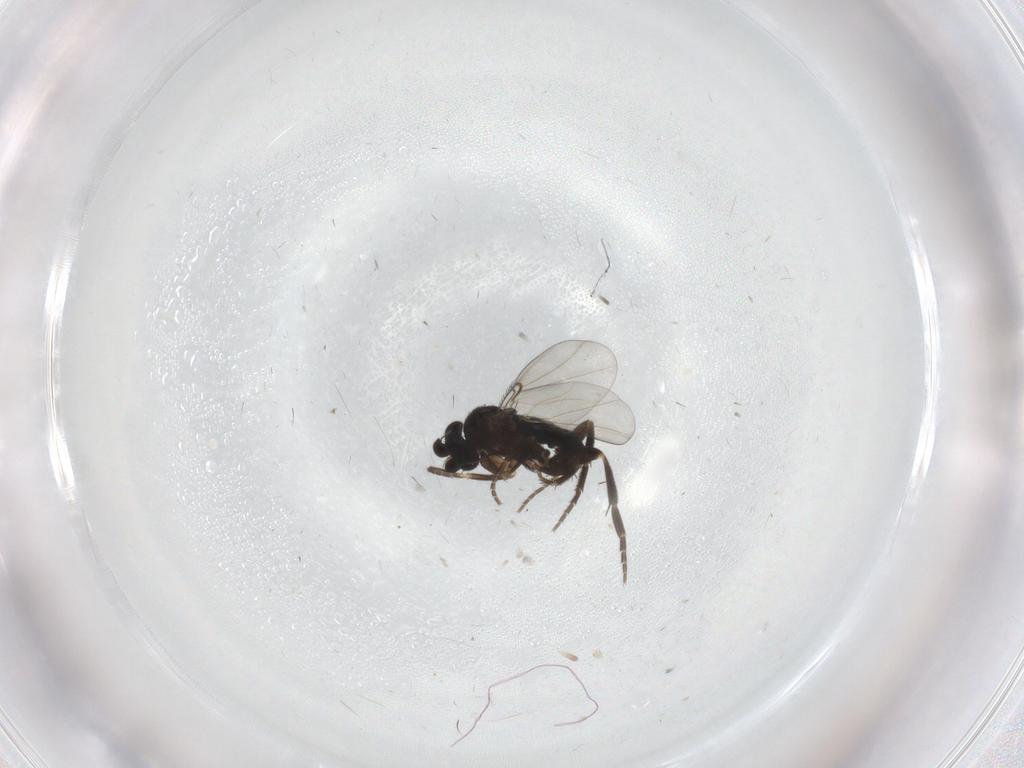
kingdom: Animalia
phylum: Arthropoda
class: Insecta
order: Diptera
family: Phoridae
